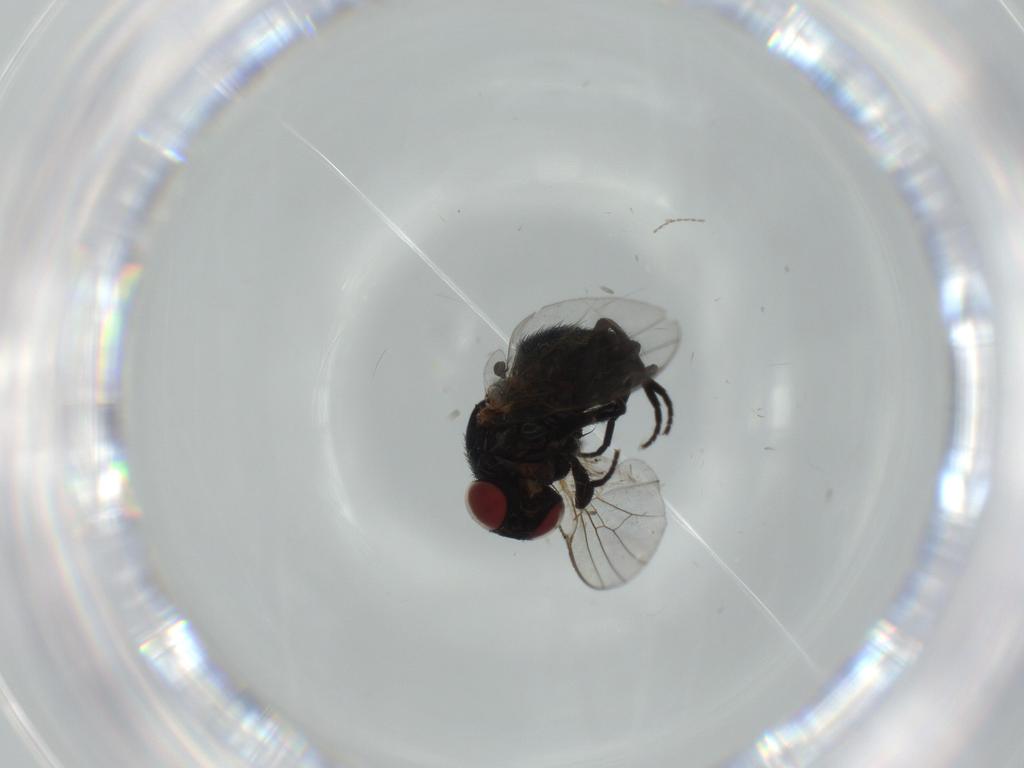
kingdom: Animalia
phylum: Arthropoda
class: Insecta
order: Diptera
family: Agromyzidae
